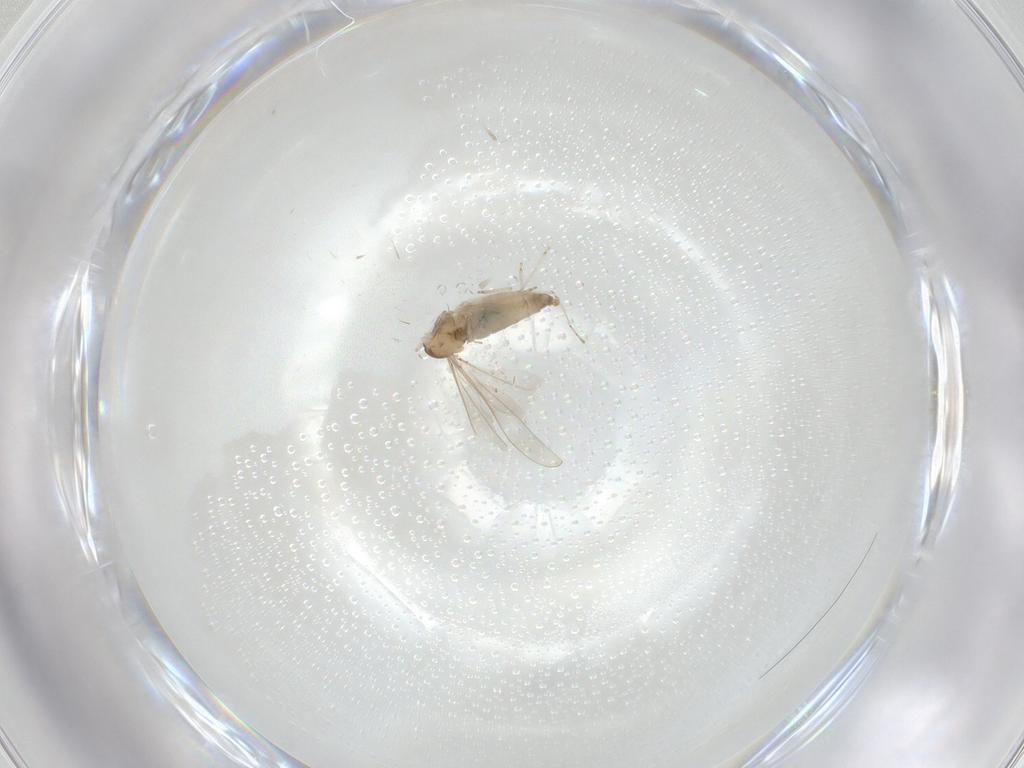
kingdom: Animalia
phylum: Arthropoda
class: Insecta
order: Diptera
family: Cecidomyiidae
